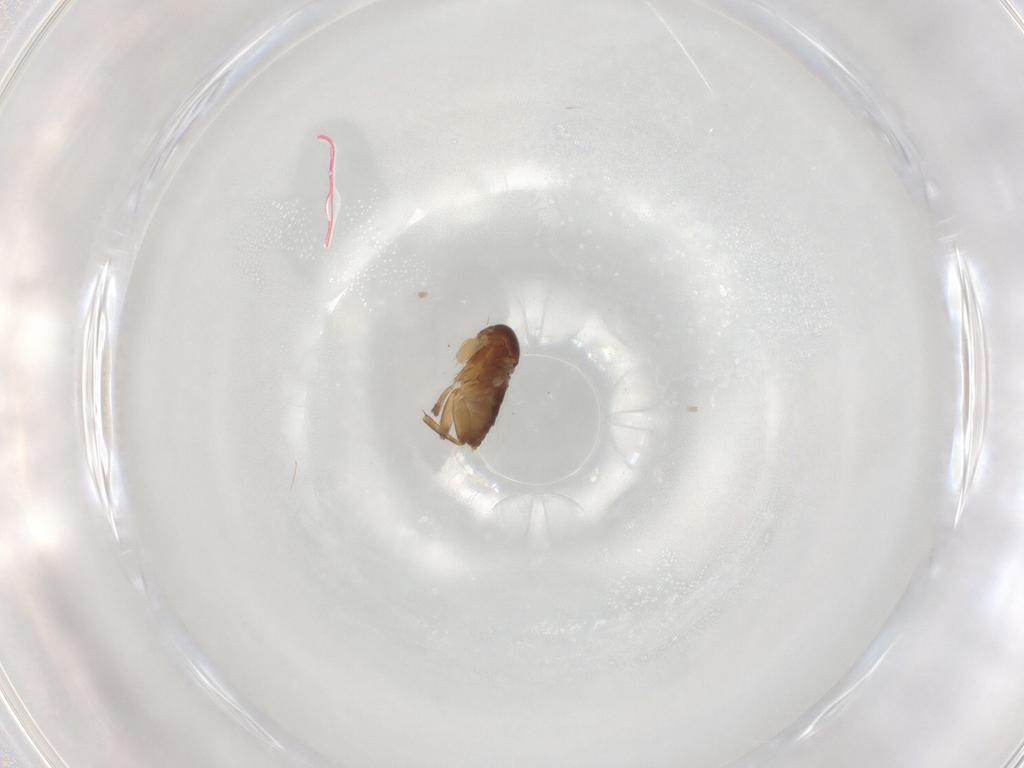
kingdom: Animalia
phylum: Arthropoda
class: Insecta
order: Diptera
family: Phoridae
